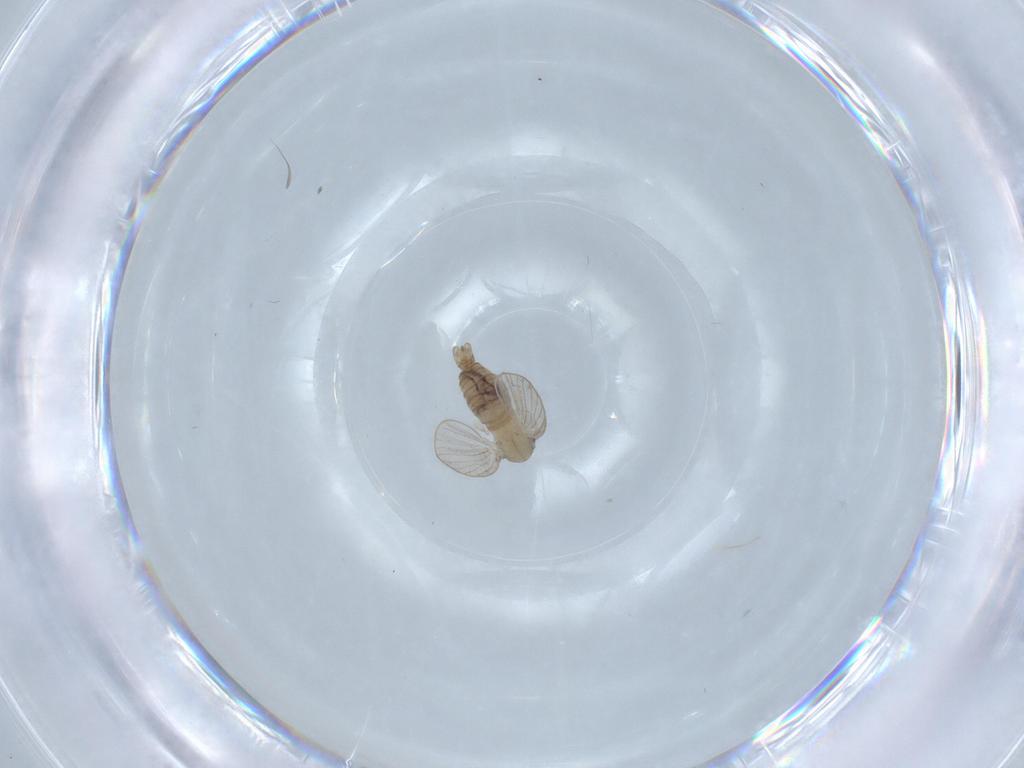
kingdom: Animalia
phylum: Arthropoda
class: Insecta
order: Diptera
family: Psychodidae
